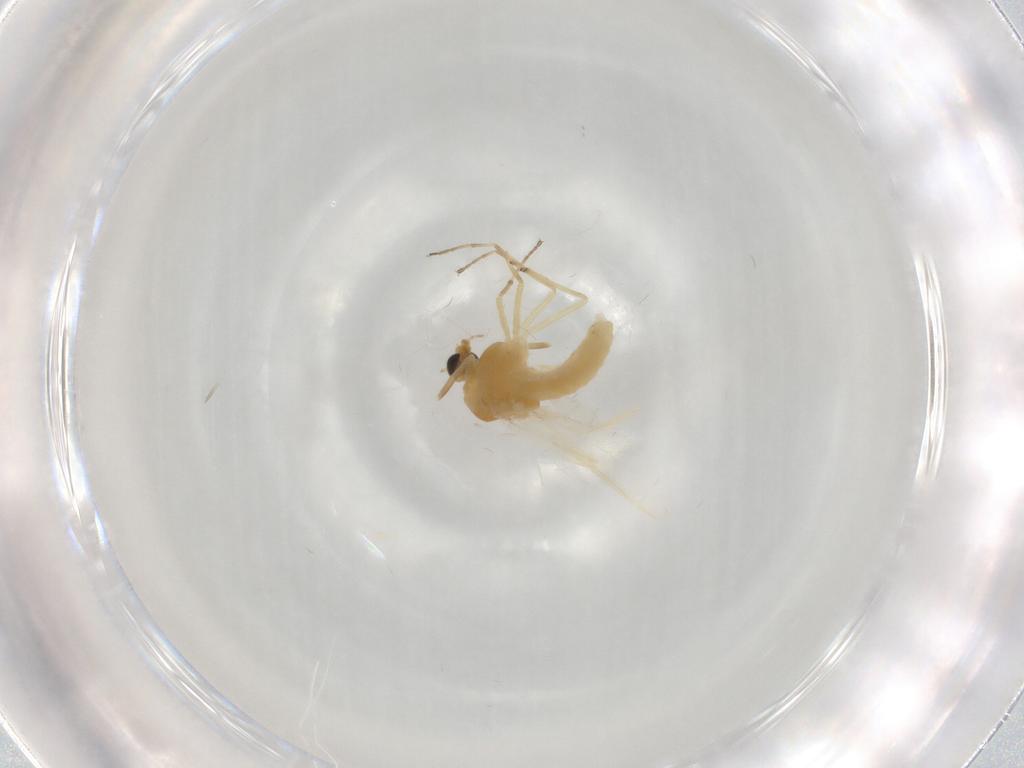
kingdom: Animalia
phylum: Arthropoda
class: Insecta
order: Diptera
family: Chironomidae
